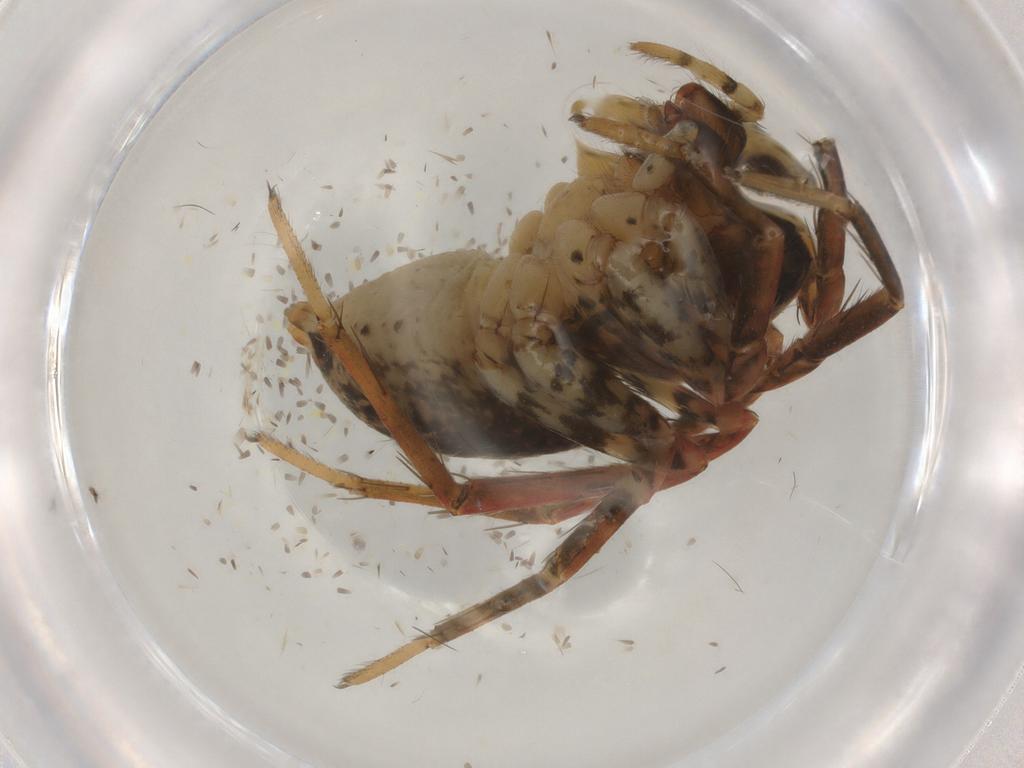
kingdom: Animalia
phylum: Arthropoda
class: Arachnida
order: Araneae
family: Lycosidae
